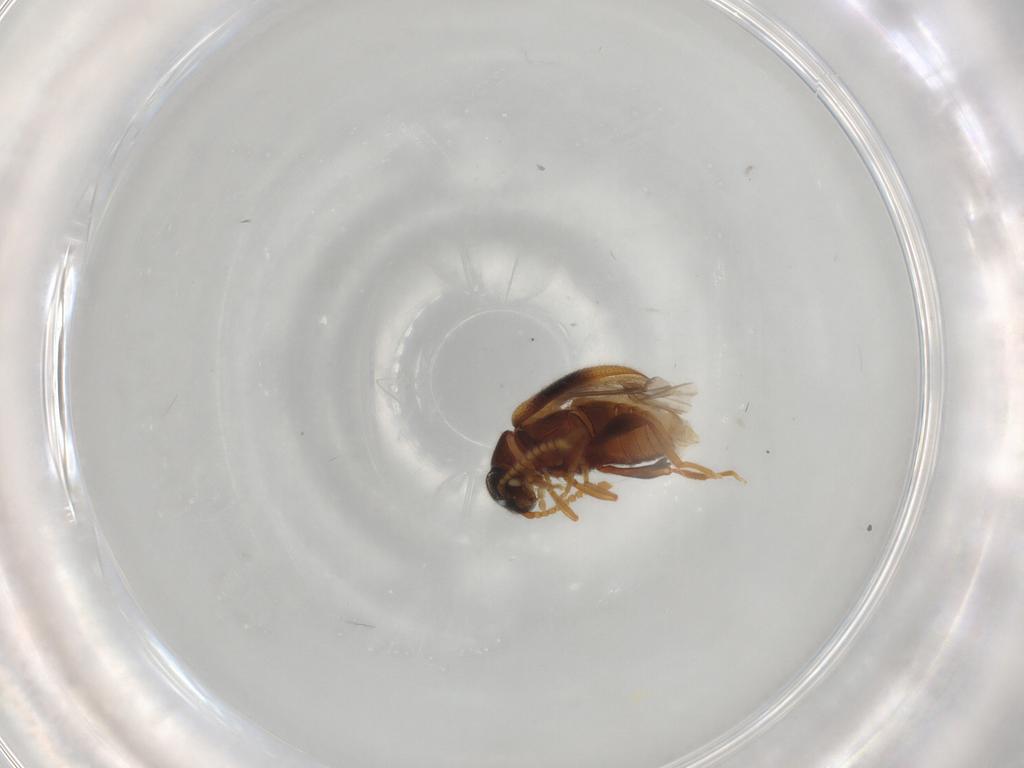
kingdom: Animalia
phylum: Arthropoda
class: Insecta
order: Coleoptera
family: Aderidae
